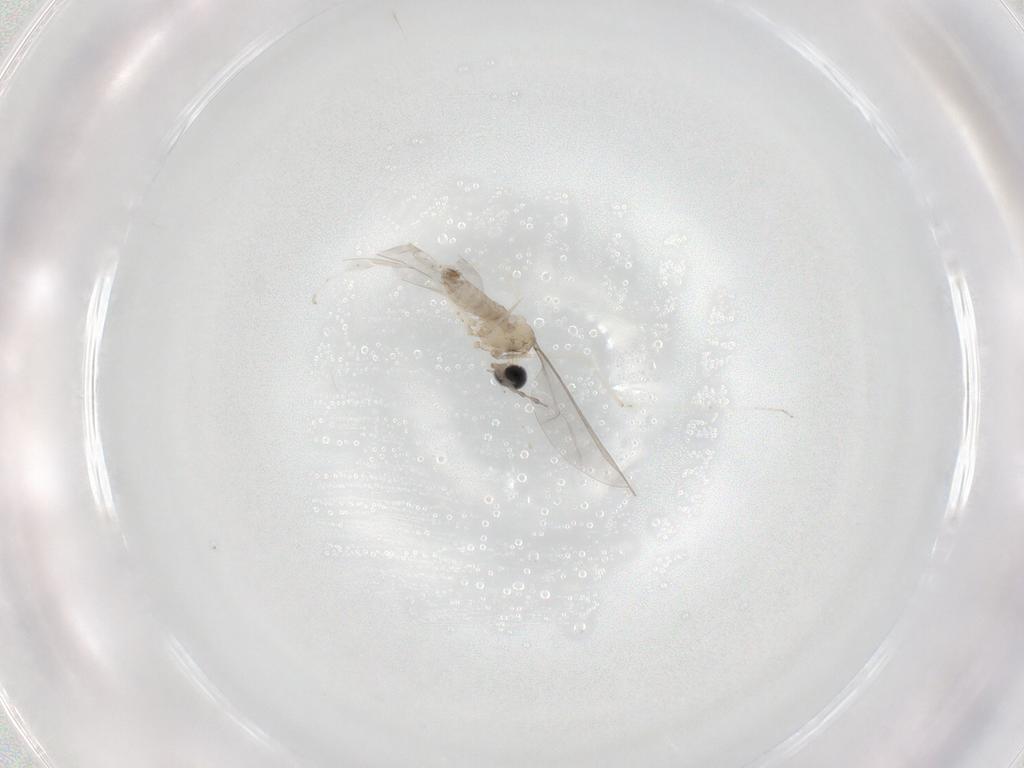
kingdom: Animalia
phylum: Arthropoda
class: Insecta
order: Diptera
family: Cecidomyiidae
